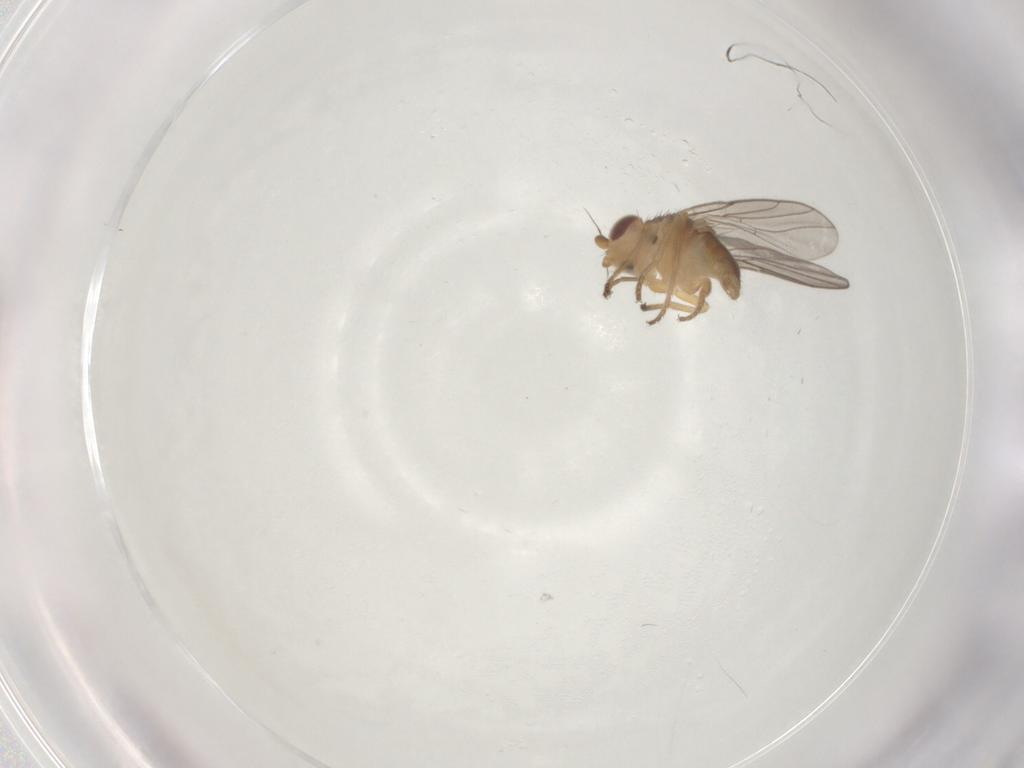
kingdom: Animalia
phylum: Arthropoda
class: Insecta
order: Diptera
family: Chloropidae
